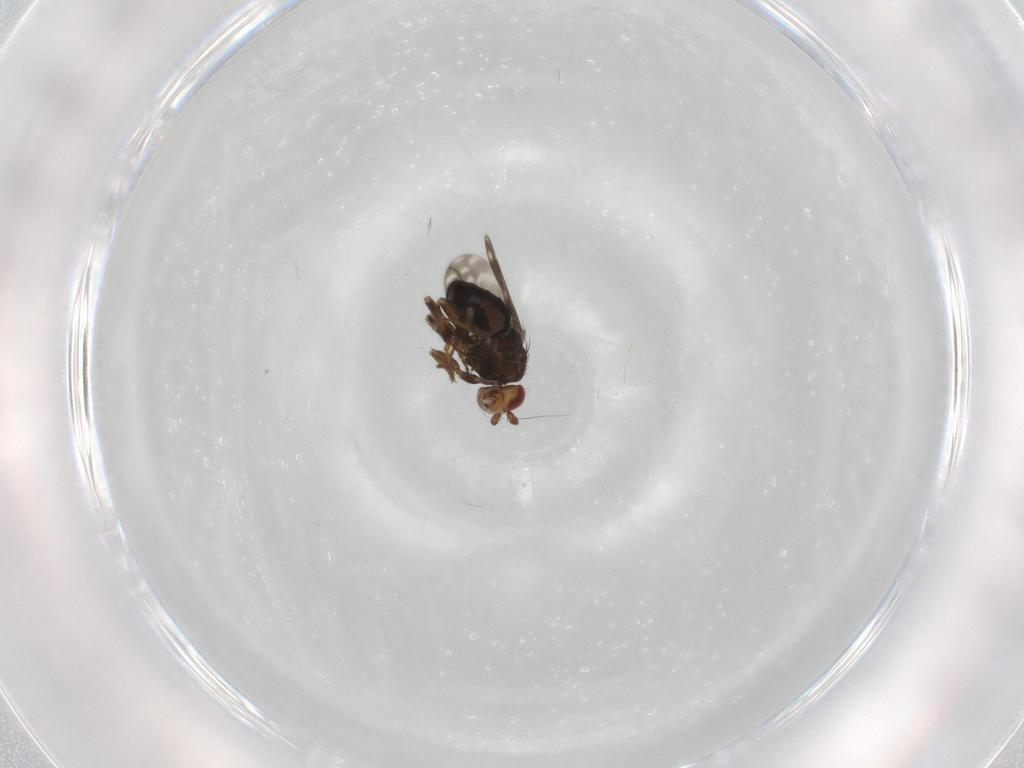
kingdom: Animalia
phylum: Arthropoda
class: Insecta
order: Diptera
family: Sphaeroceridae
